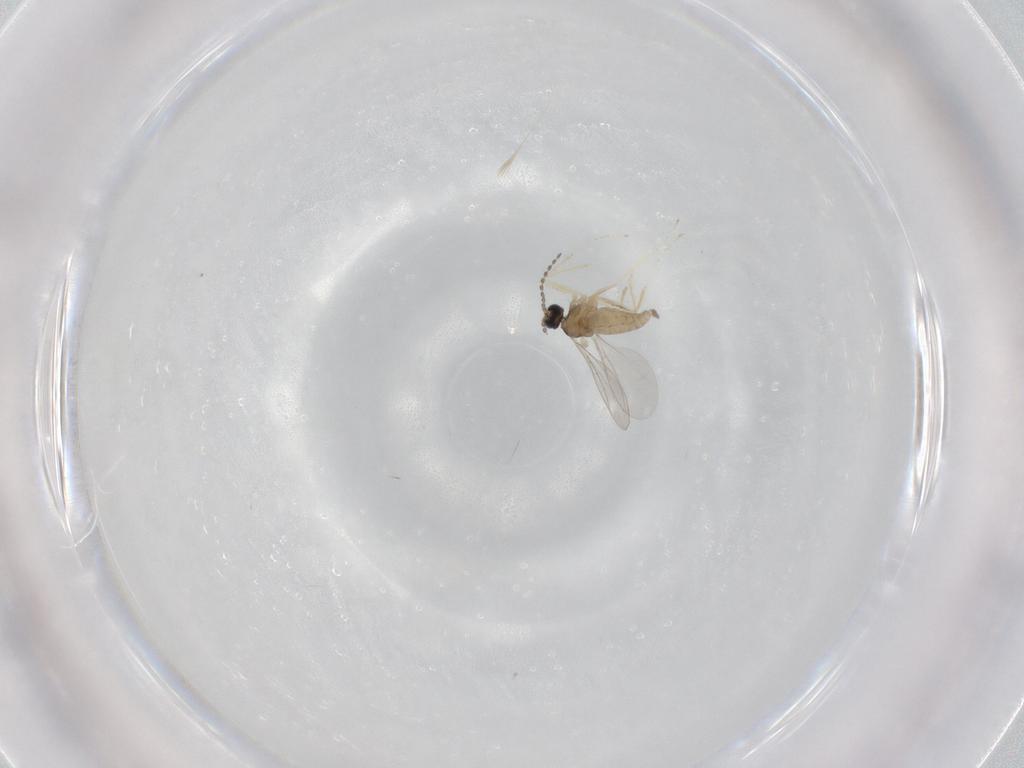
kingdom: Animalia
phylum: Arthropoda
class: Insecta
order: Diptera
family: Cecidomyiidae
